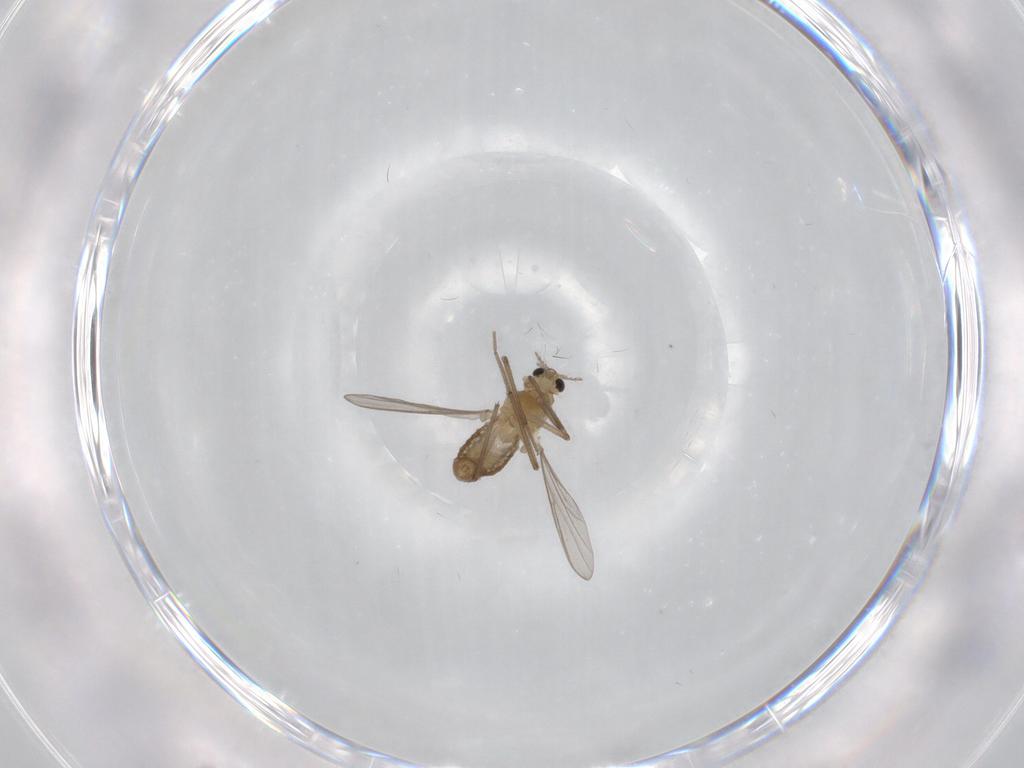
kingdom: Animalia
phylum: Arthropoda
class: Insecta
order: Diptera
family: Chironomidae
